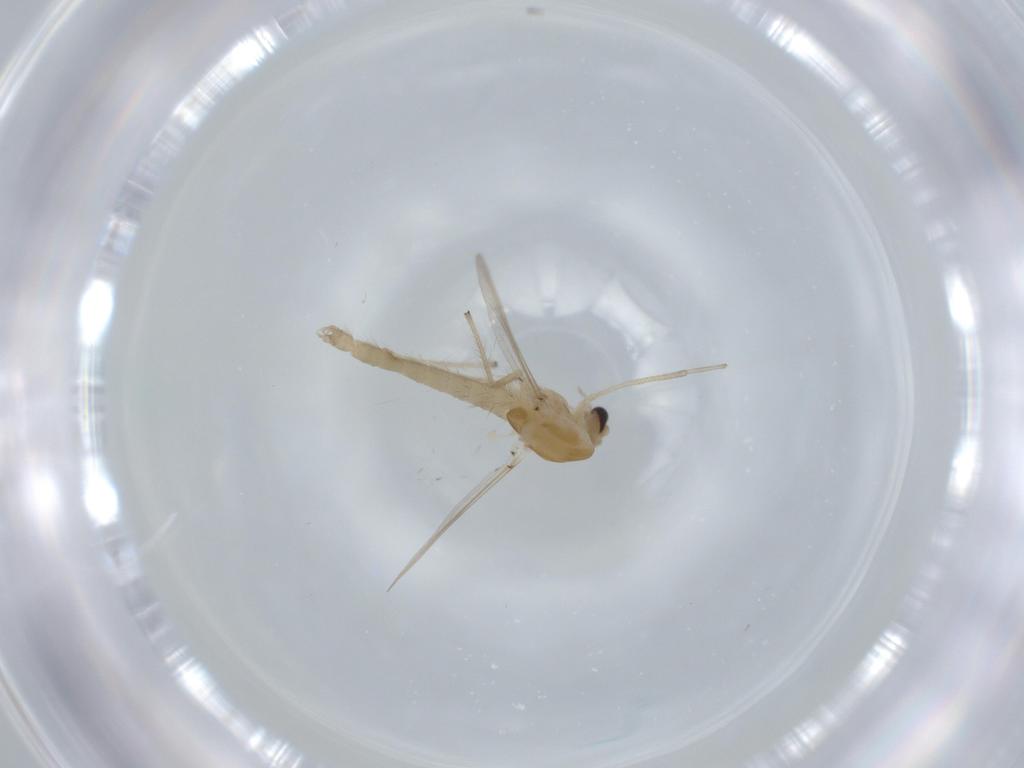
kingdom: Animalia
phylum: Arthropoda
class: Insecta
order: Diptera
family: Chironomidae
